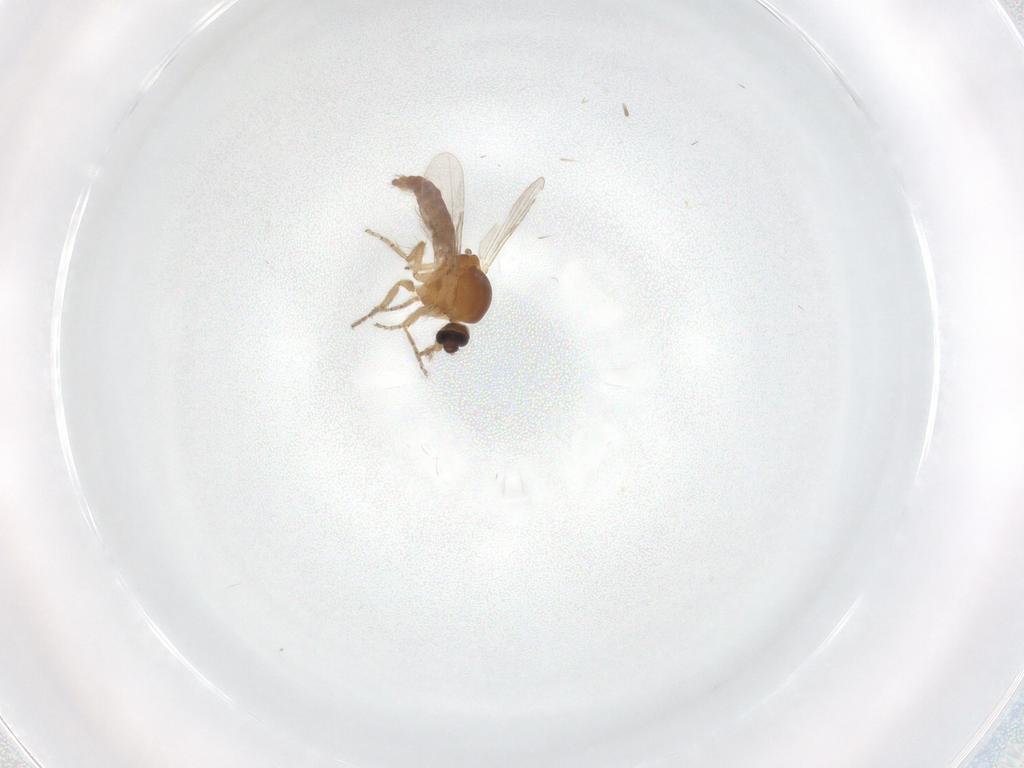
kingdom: Animalia
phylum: Arthropoda
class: Insecta
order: Diptera
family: Ceratopogonidae
